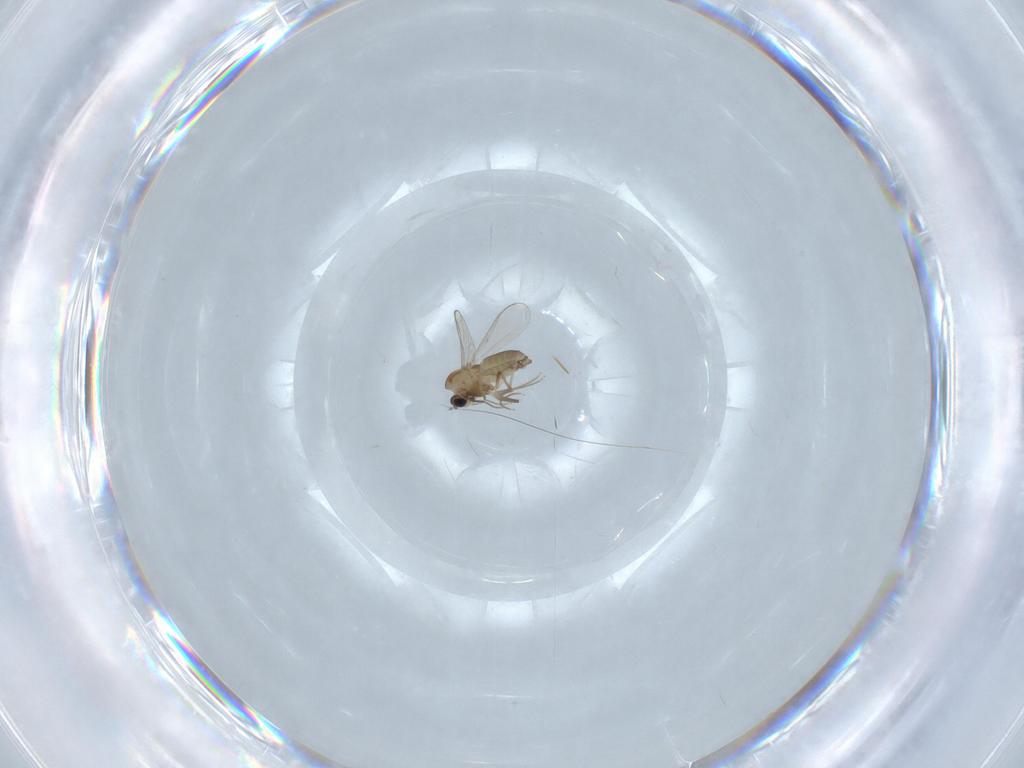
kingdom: Animalia
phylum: Arthropoda
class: Insecta
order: Diptera
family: Chironomidae
